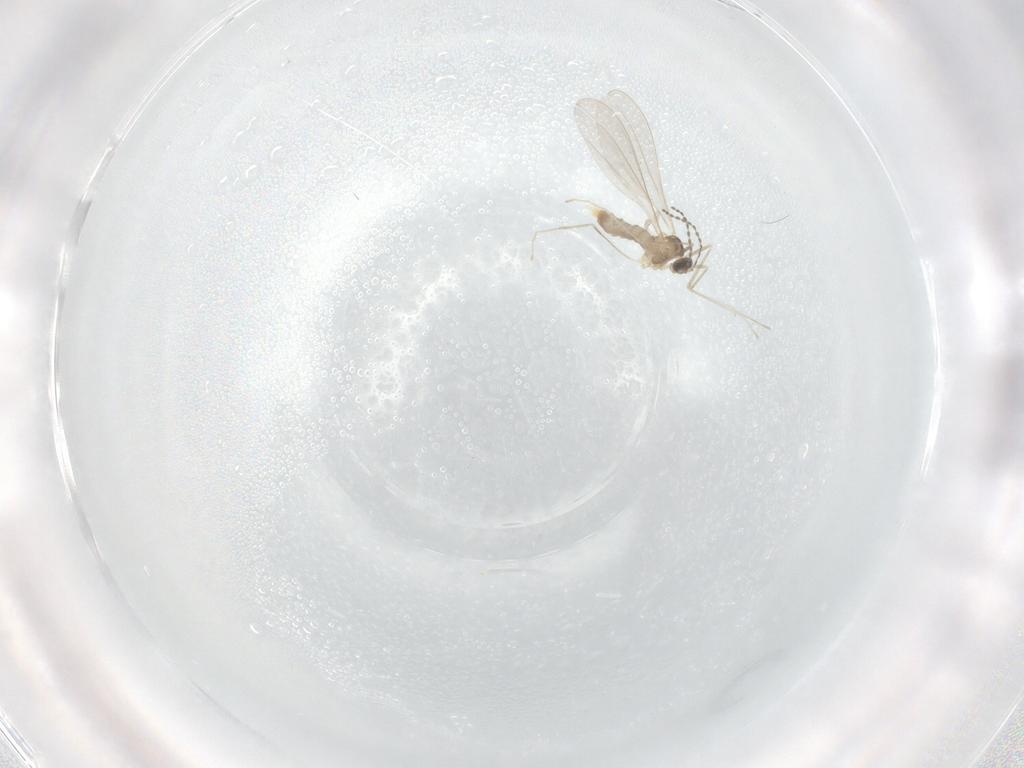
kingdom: Animalia
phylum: Arthropoda
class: Insecta
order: Diptera
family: Cecidomyiidae
